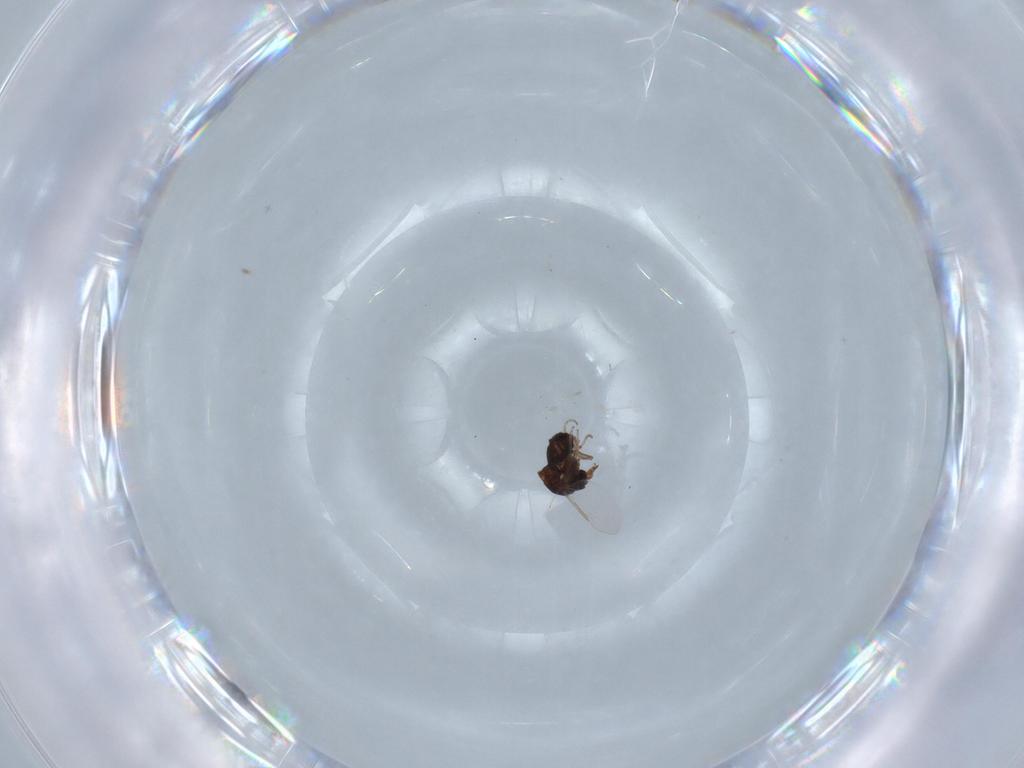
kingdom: Animalia
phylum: Arthropoda
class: Insecta
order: Diptera
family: Ceratopogonidae
